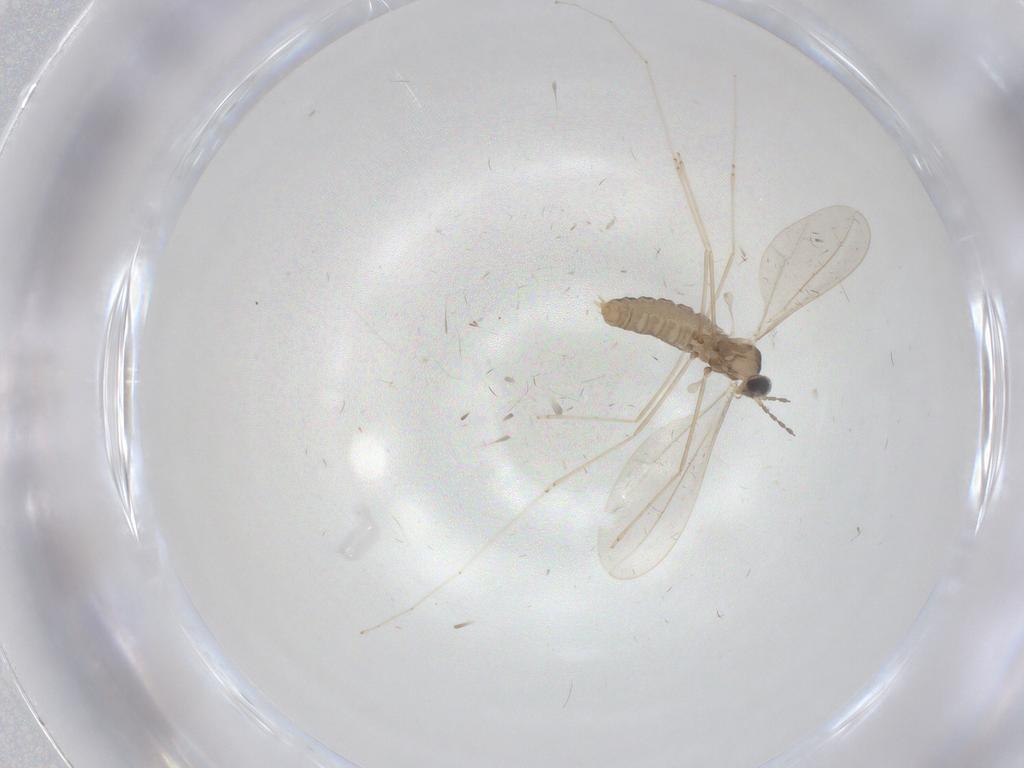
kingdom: Animalia
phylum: Arthropoda
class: Insecta
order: Diptera
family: Cecidomyiidae
